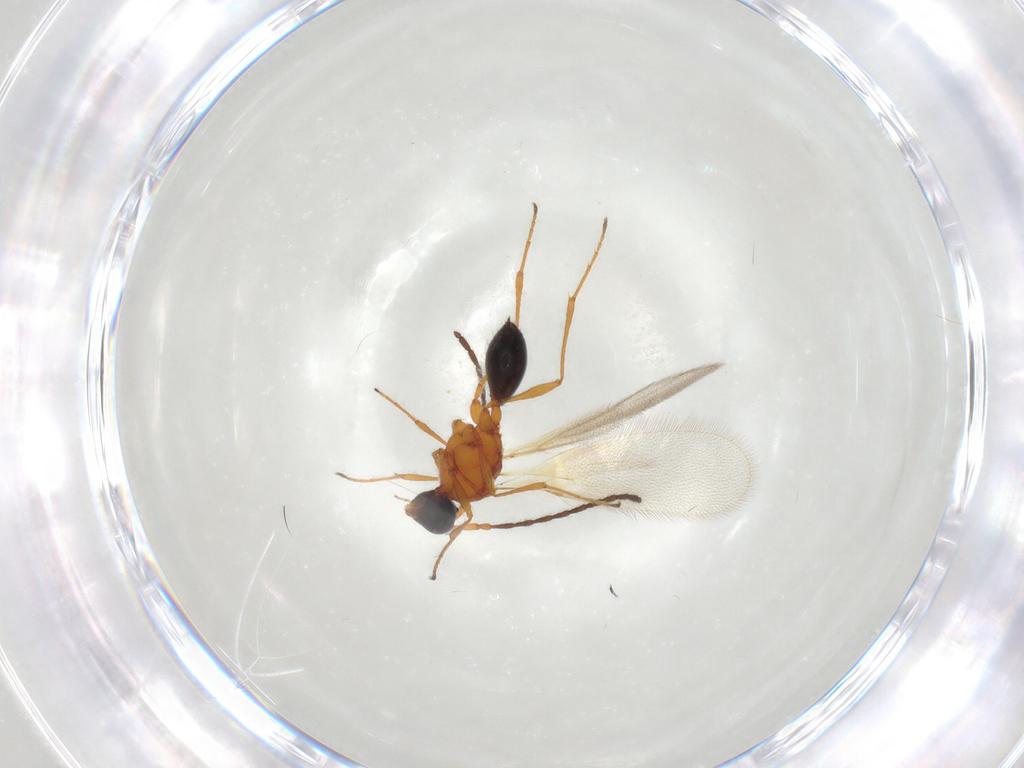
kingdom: Animalia
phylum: Arthropoda
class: Insecta
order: Hymenoptera
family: Diapriidae
